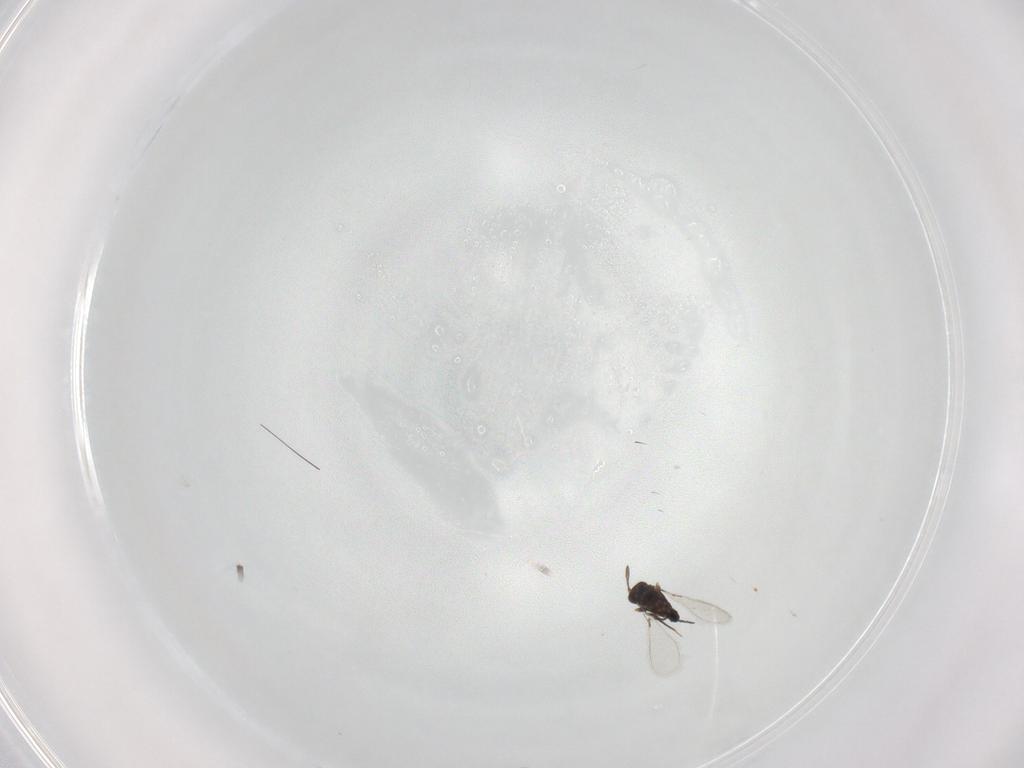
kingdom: Animalia
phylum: Arthropoda
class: Insecta
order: Hymenoptera
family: Mymaridae
